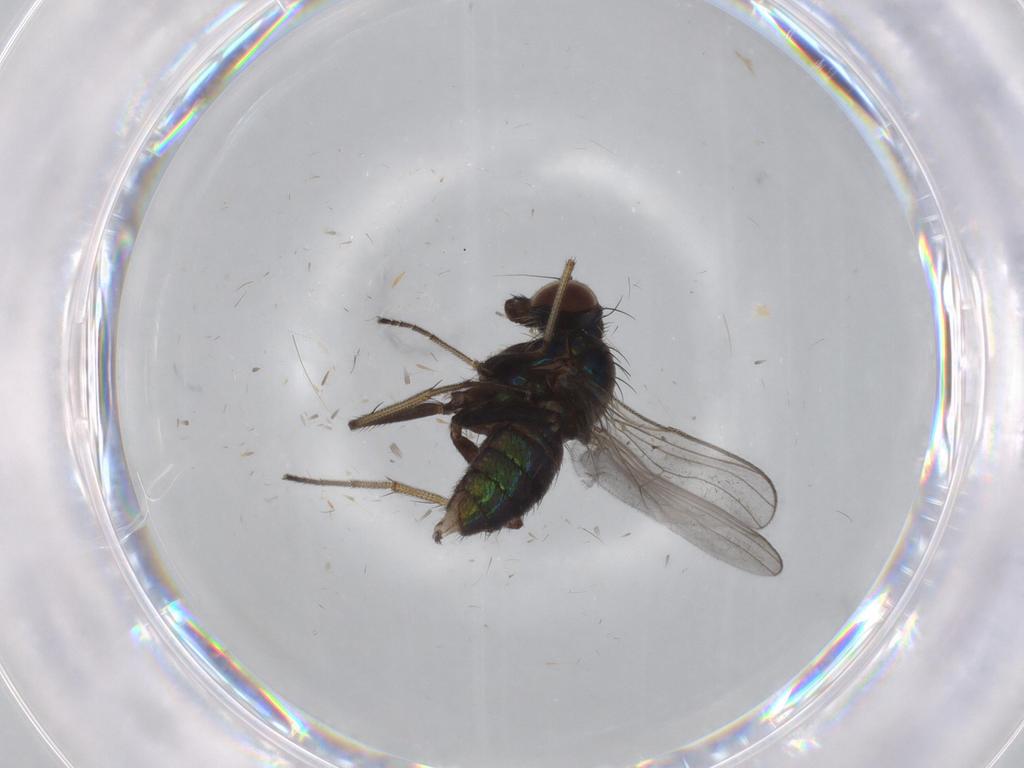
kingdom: Animalia
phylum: Arthropoda
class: Insecta
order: Diptera
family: Dolichopodidae
